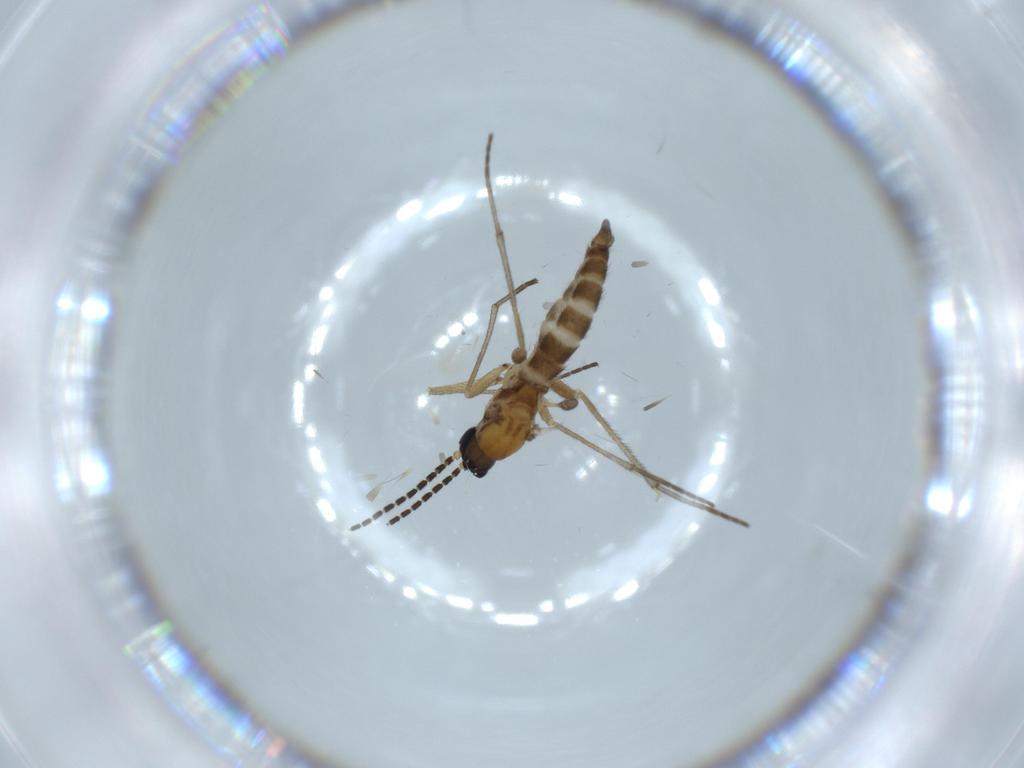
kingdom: Animalia
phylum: Arthropoda
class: Insecta
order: Diptera
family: Sciaridae
